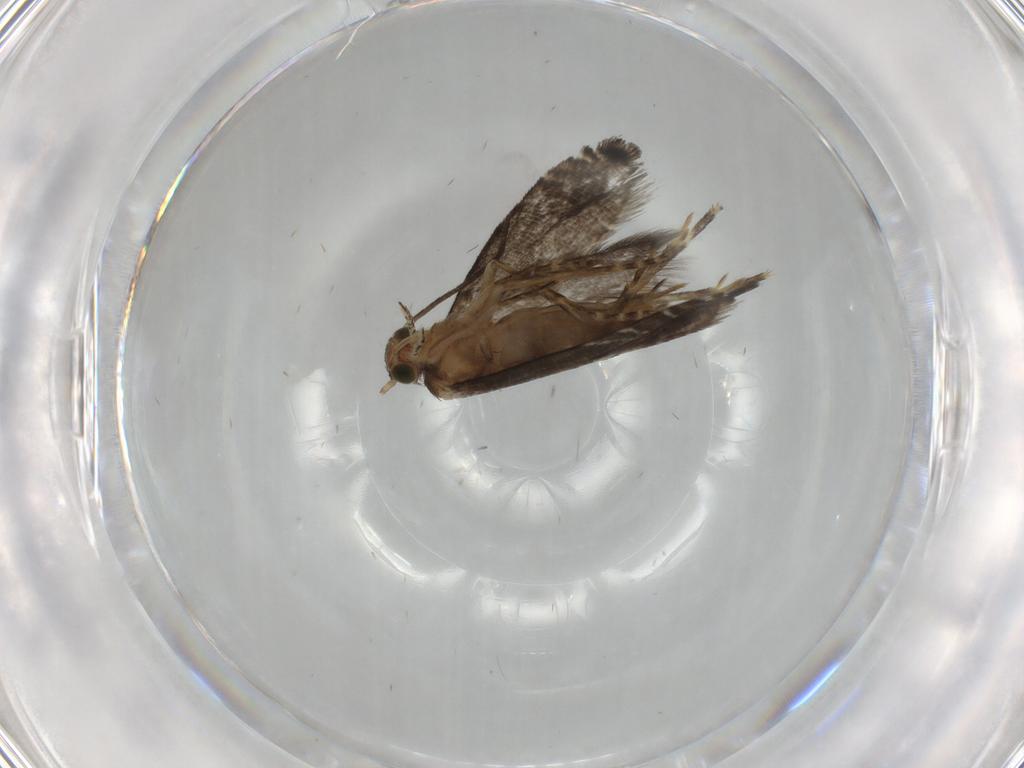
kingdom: Animalia
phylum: Arthropoda
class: Insecta
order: Lepidoptera
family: Glyphipterigidae
